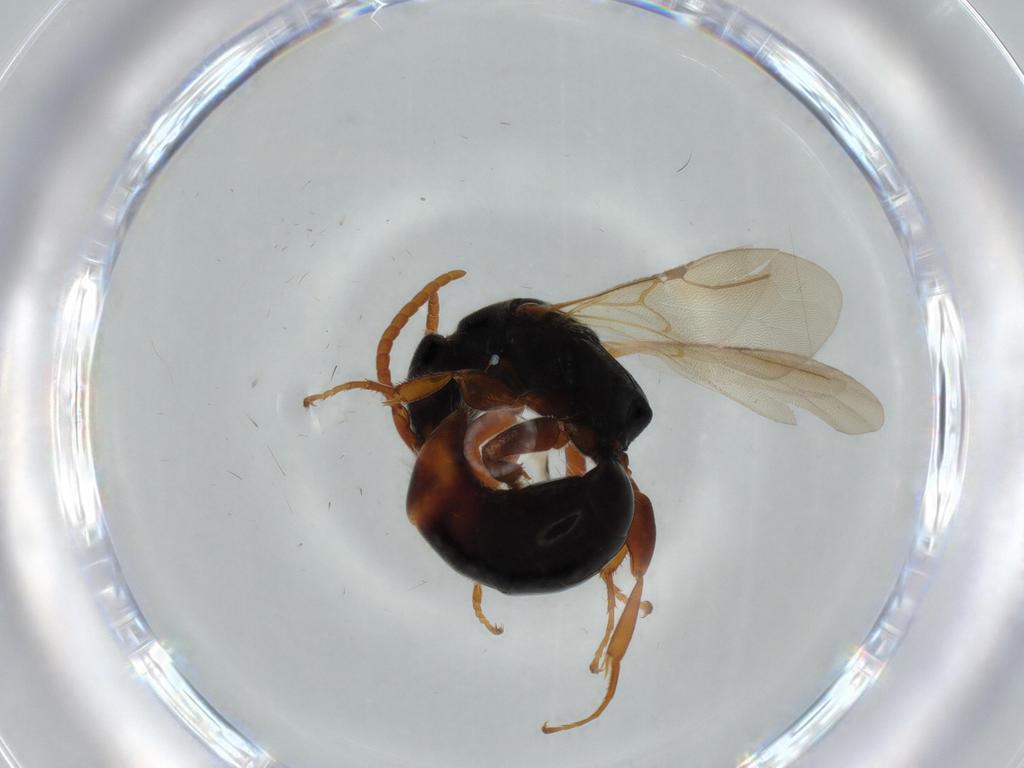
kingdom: Animalia
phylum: Arthropoda
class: Insecta
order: Hymenoptera
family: Bethylidae
